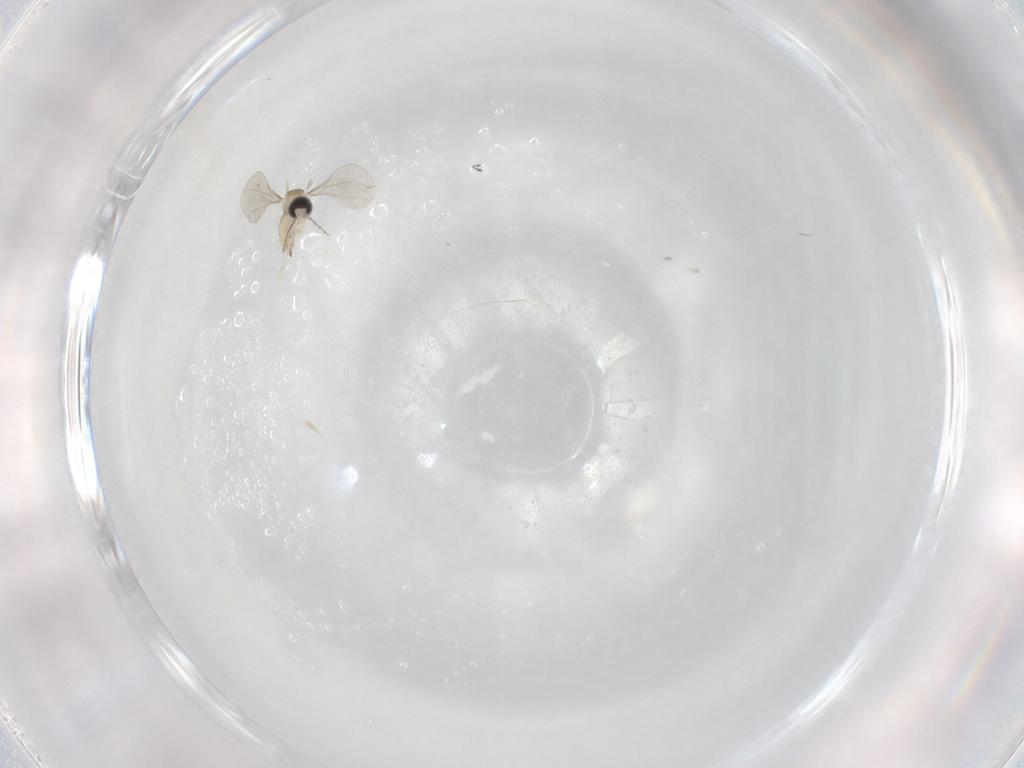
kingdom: Animalia
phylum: Arthropoda
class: Insecta
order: Diptera
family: Cecidomyiidae
